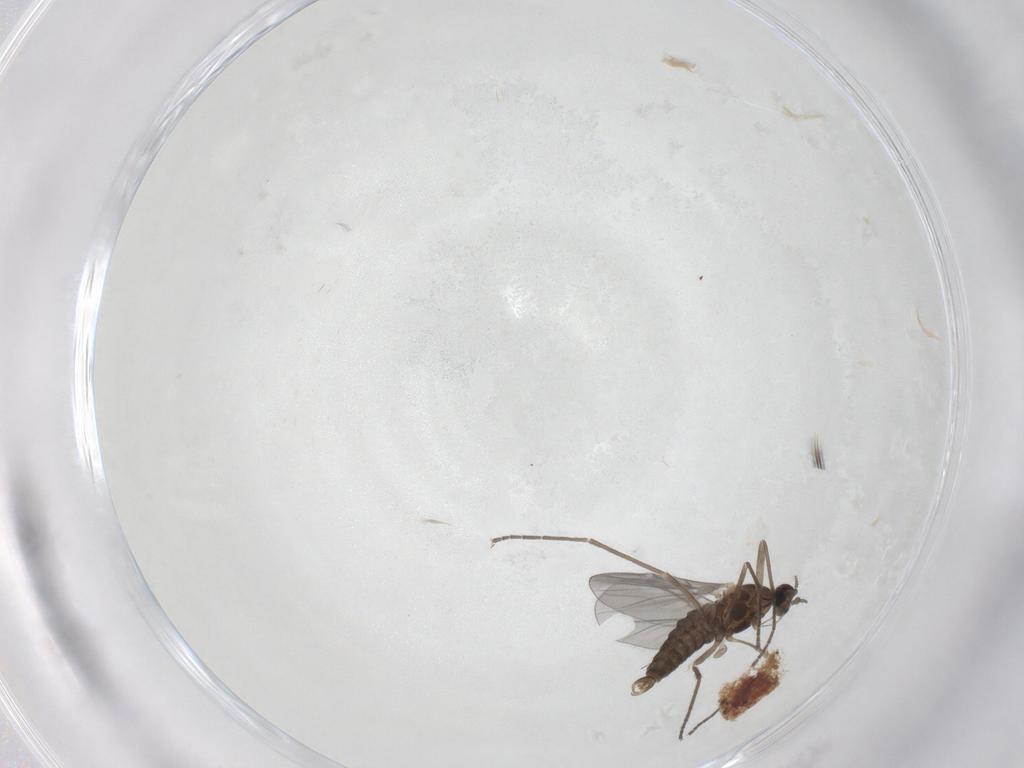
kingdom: Animalia
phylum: Arthropoda
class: Insecta
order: Diptera
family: Cecidomyiidae
